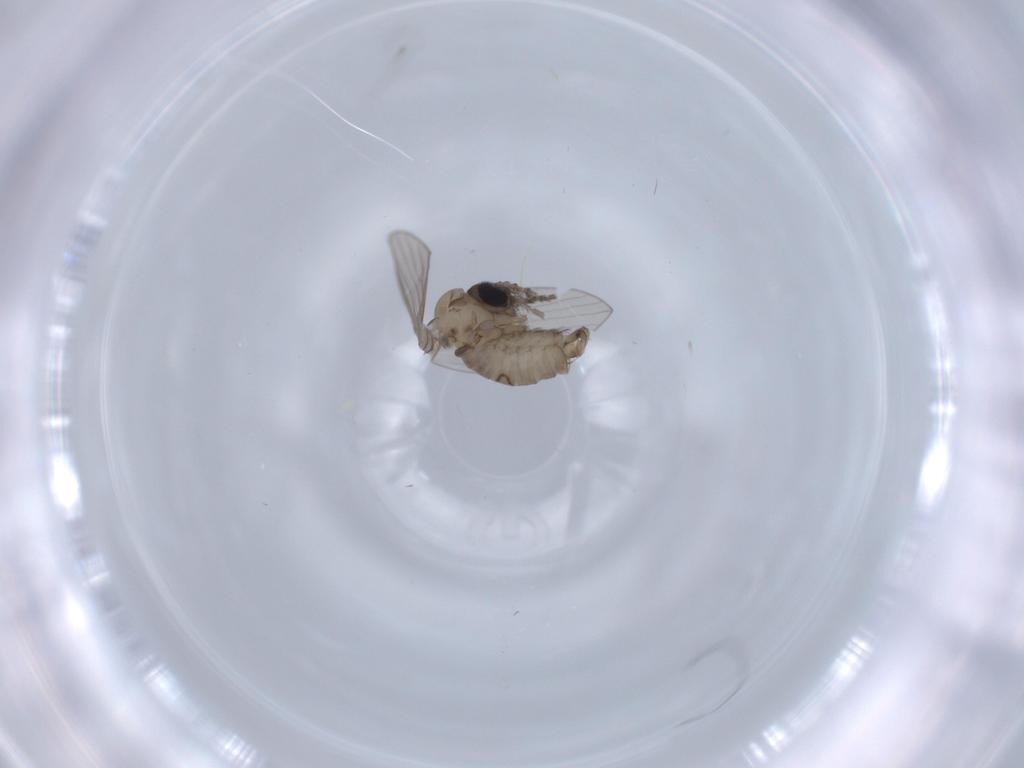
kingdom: Animalia
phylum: Arthropoda
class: Insecta
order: Diptera
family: Psychodidae
